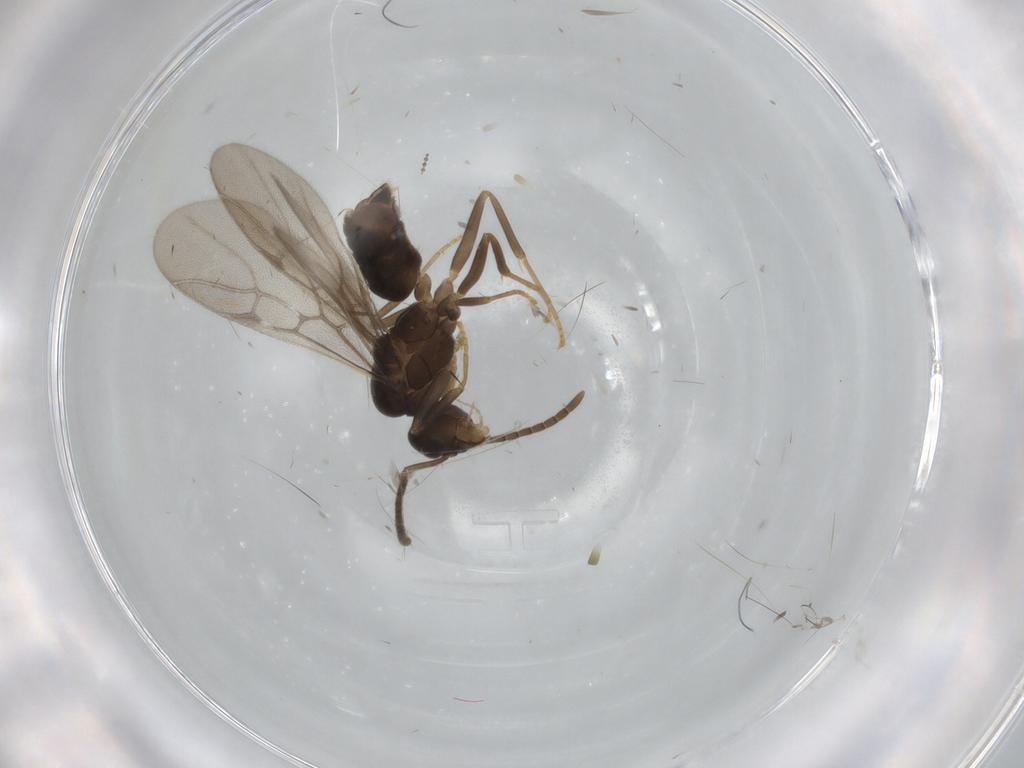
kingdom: Animalia
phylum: Arthropoda
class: Insecta
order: Hymenoptera
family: Formicidae
